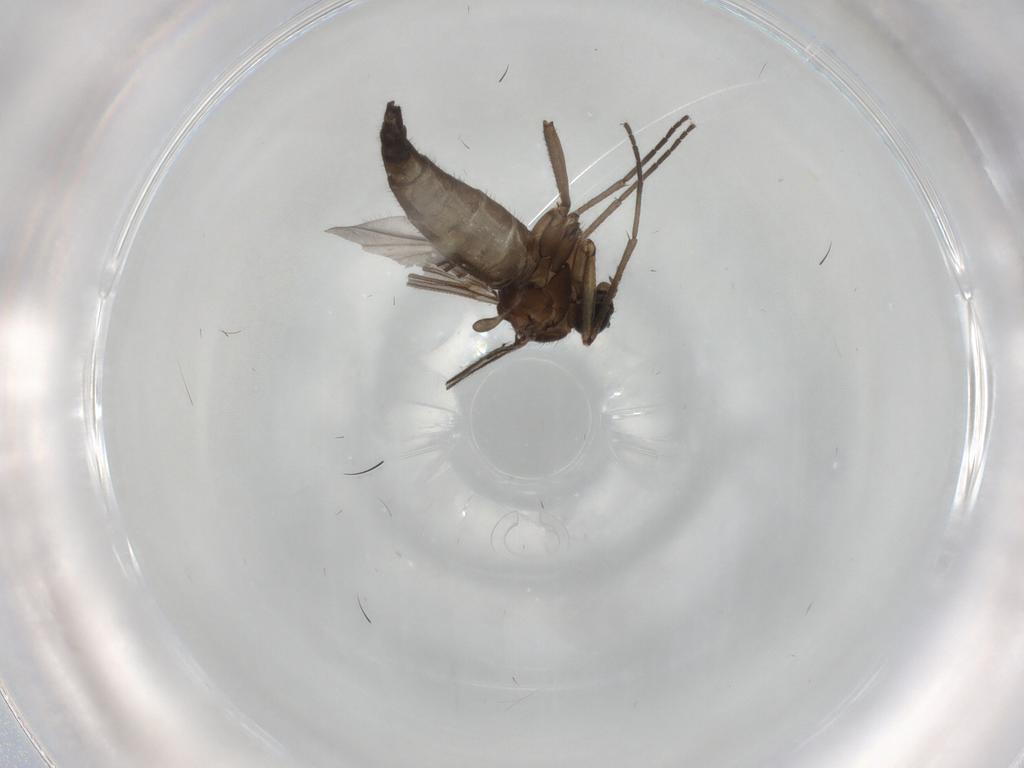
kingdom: Animalia
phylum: Arthropoda
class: Insecta
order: Diptera
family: Sciaridae
